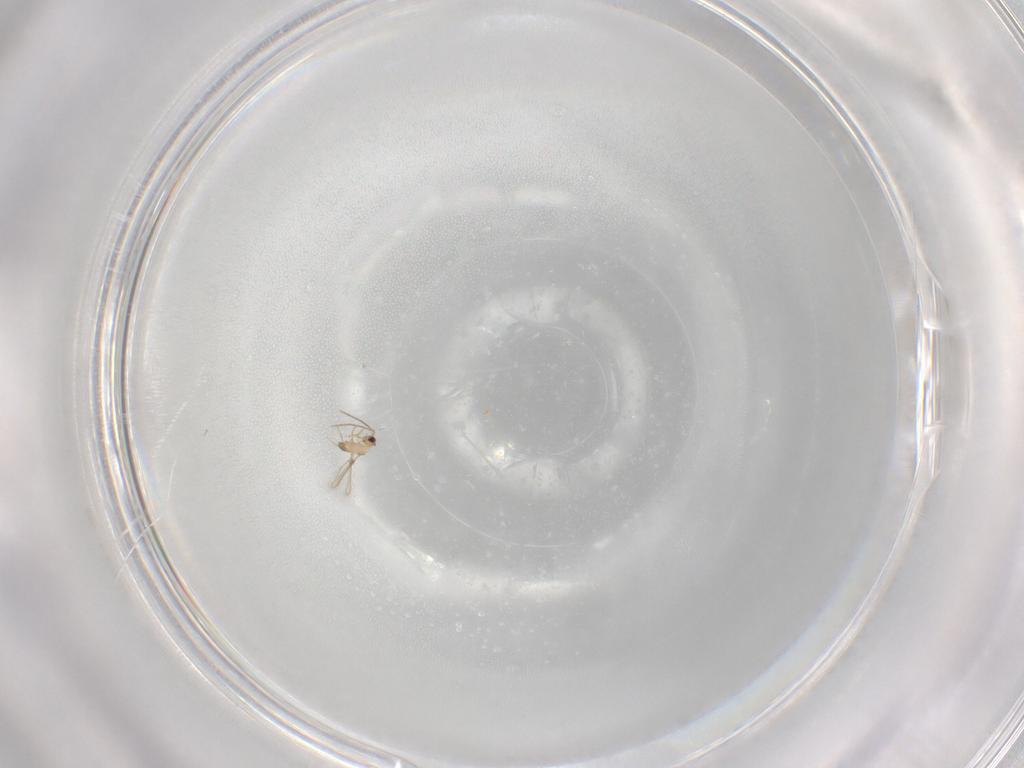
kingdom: Animalia
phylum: Arthropoda
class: Insecta
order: Hymenoptera
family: Mymaridae
